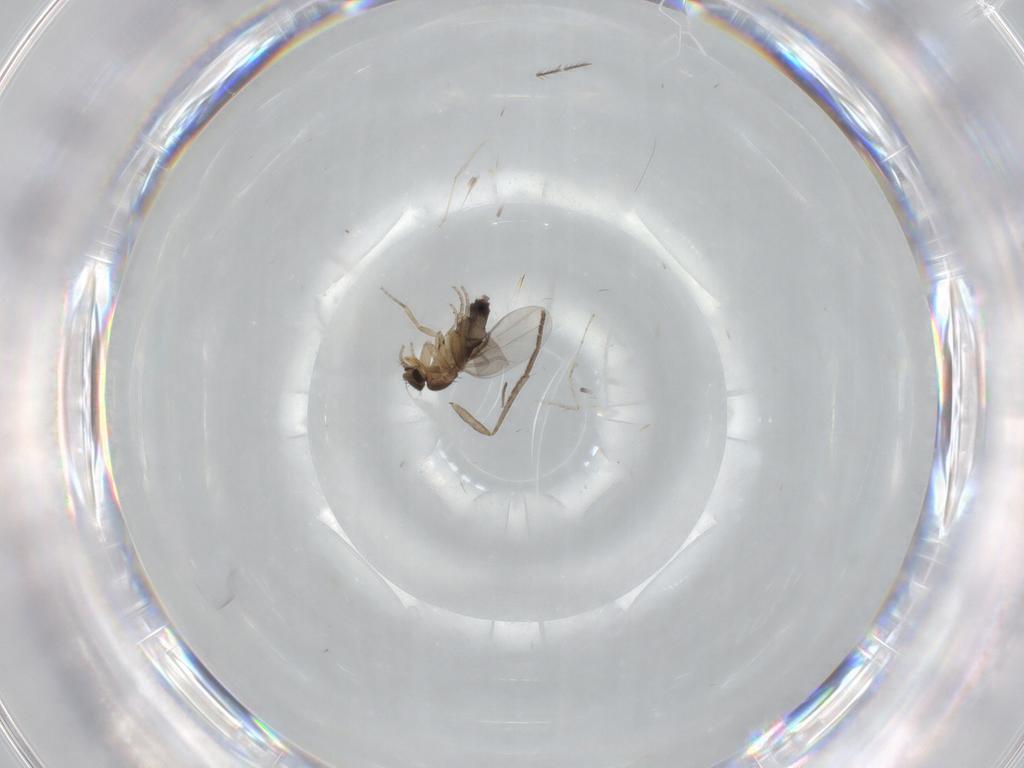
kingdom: Animalia
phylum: Arthropoda
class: Insecta
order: Diptera
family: Phoridae
